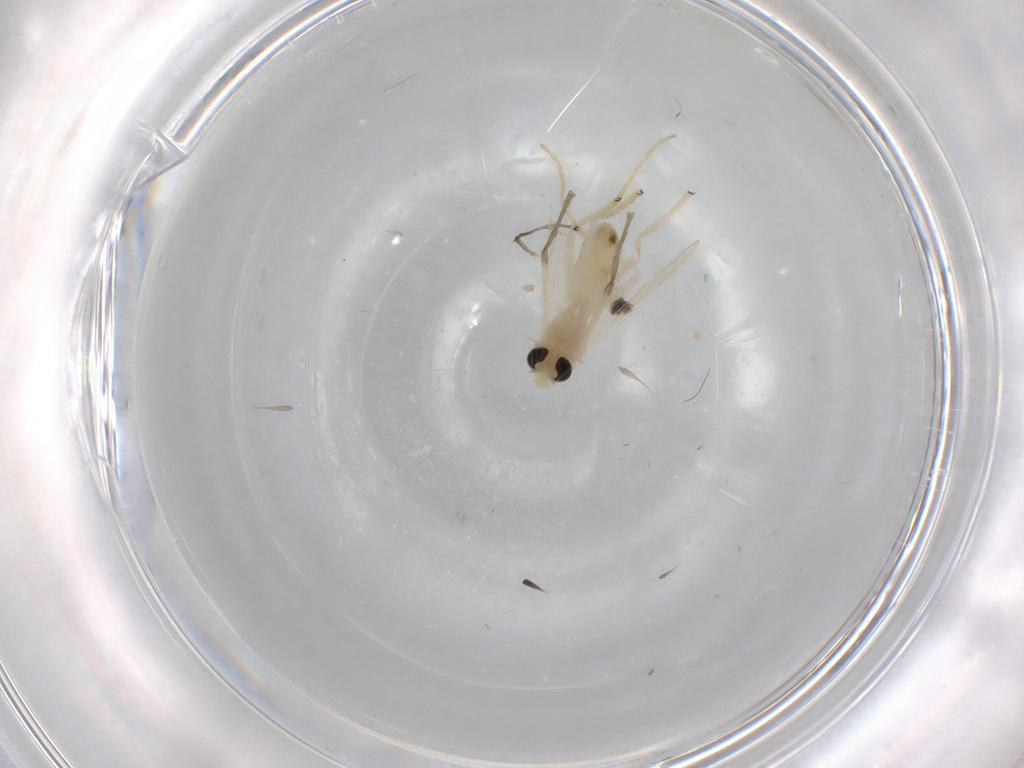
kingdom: Animalia
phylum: Arthropoda
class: Insecta
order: Diptera
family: Chironomidae
